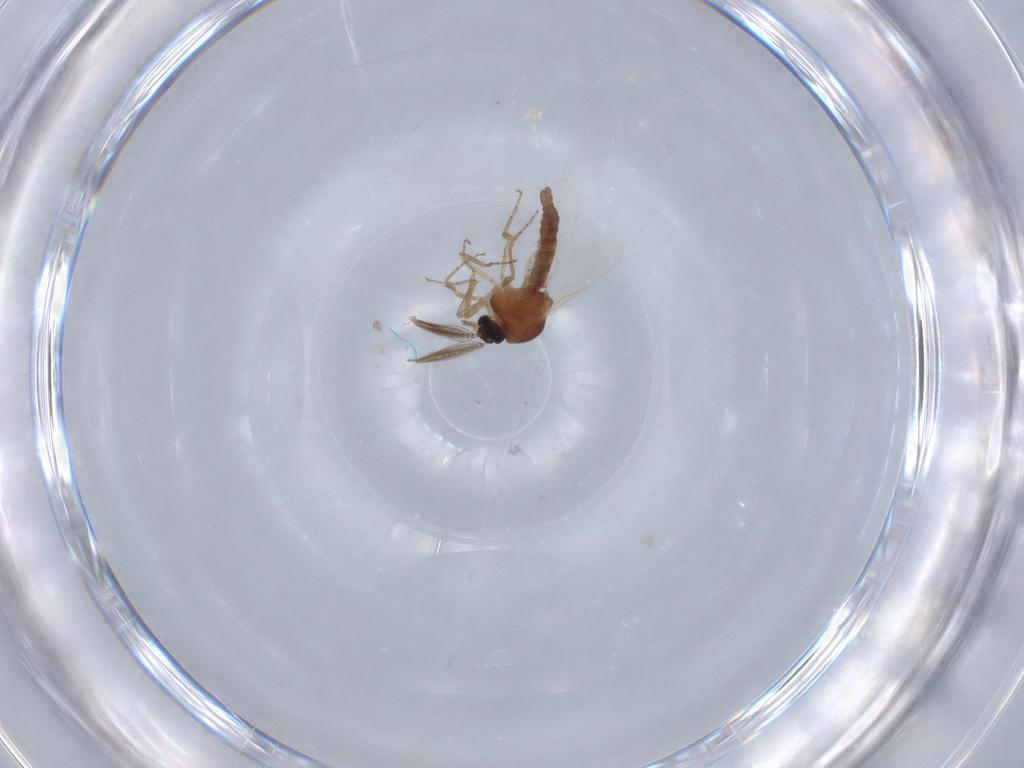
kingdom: Animalia
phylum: Arthropoda
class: Insecta
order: Diptera
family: Ceratopogonidae
